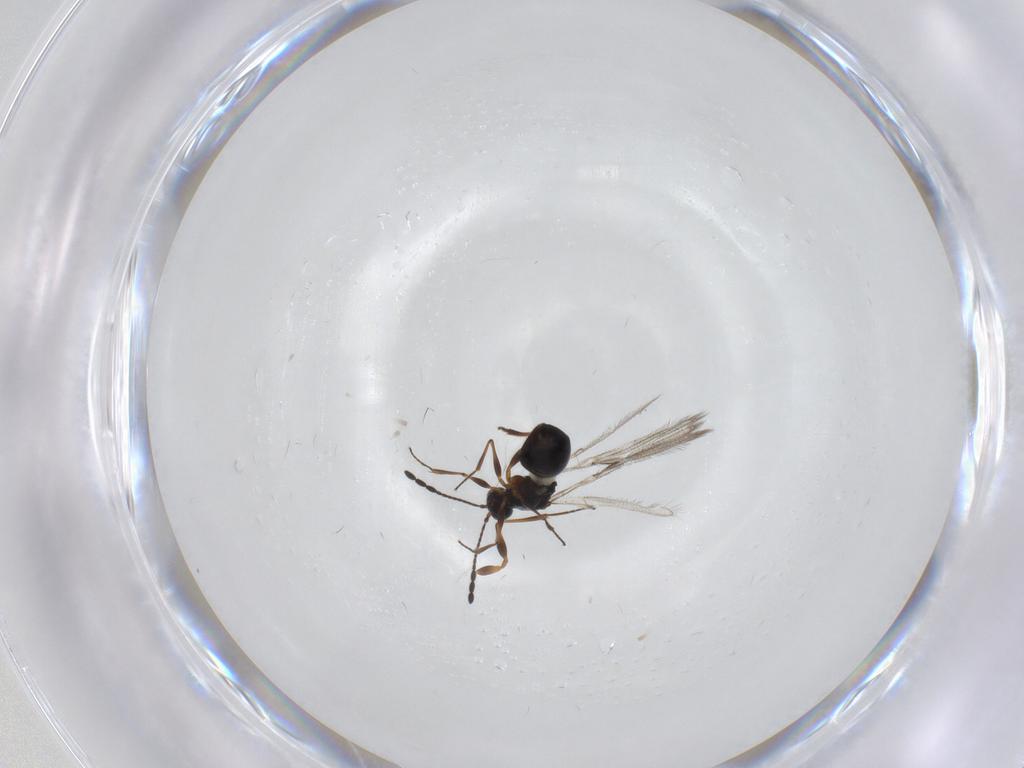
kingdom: Animalia
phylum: Arthropoda
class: Insecta
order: Hymenoptera
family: Figitidae
